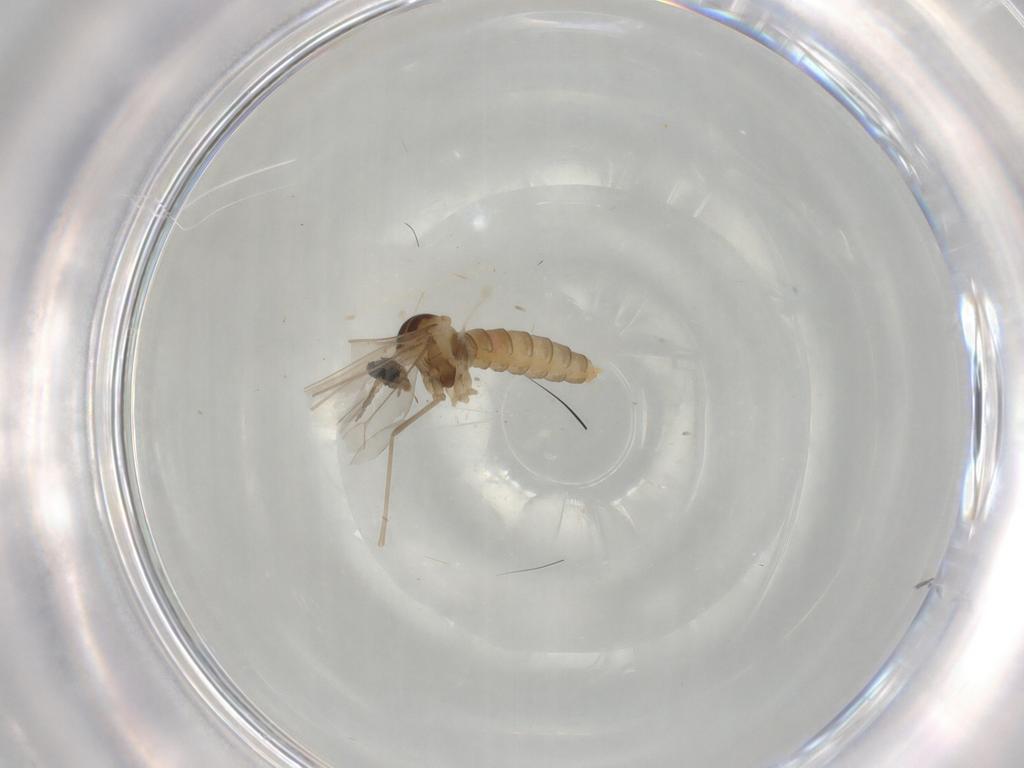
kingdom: Animalia
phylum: Arthropoda
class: Insecta
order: Diptera
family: Cecidomyiidae
